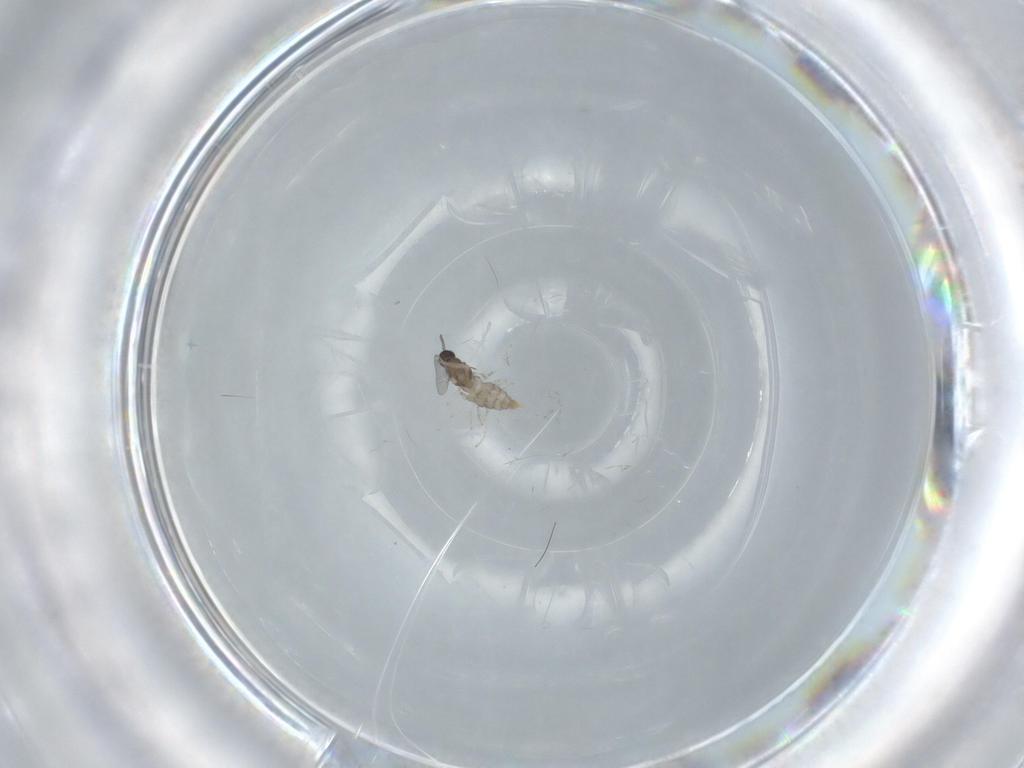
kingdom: Animalia
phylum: Arthropoda
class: Insecta
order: Diptera
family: Cecidomyiidae
